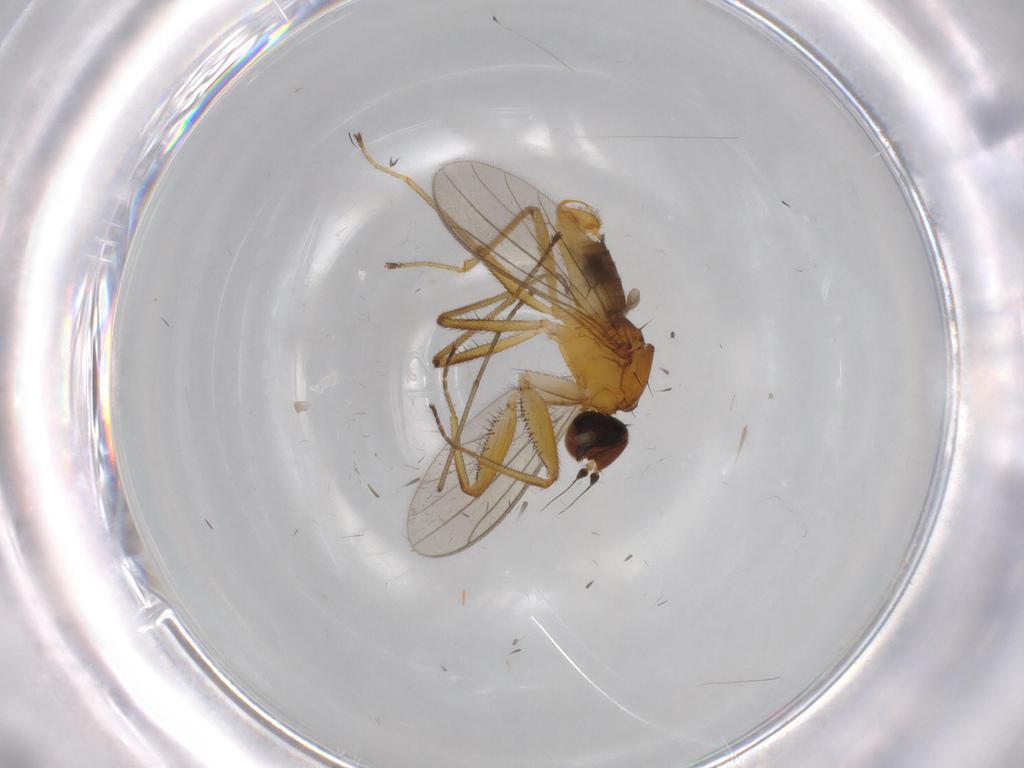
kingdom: Animalia
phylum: Arthropoda
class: Insecta
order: Diptera
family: Empididae
